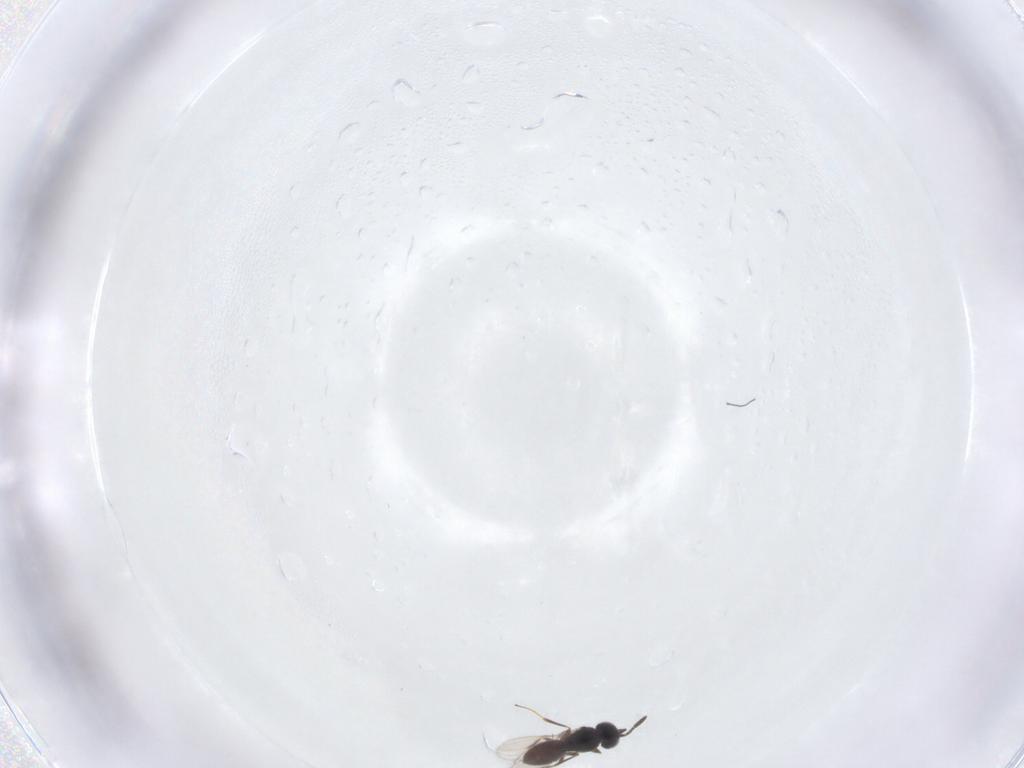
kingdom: Animalia
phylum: Arthropoda
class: Insecta
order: Hymenoptera
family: Scelionidae
